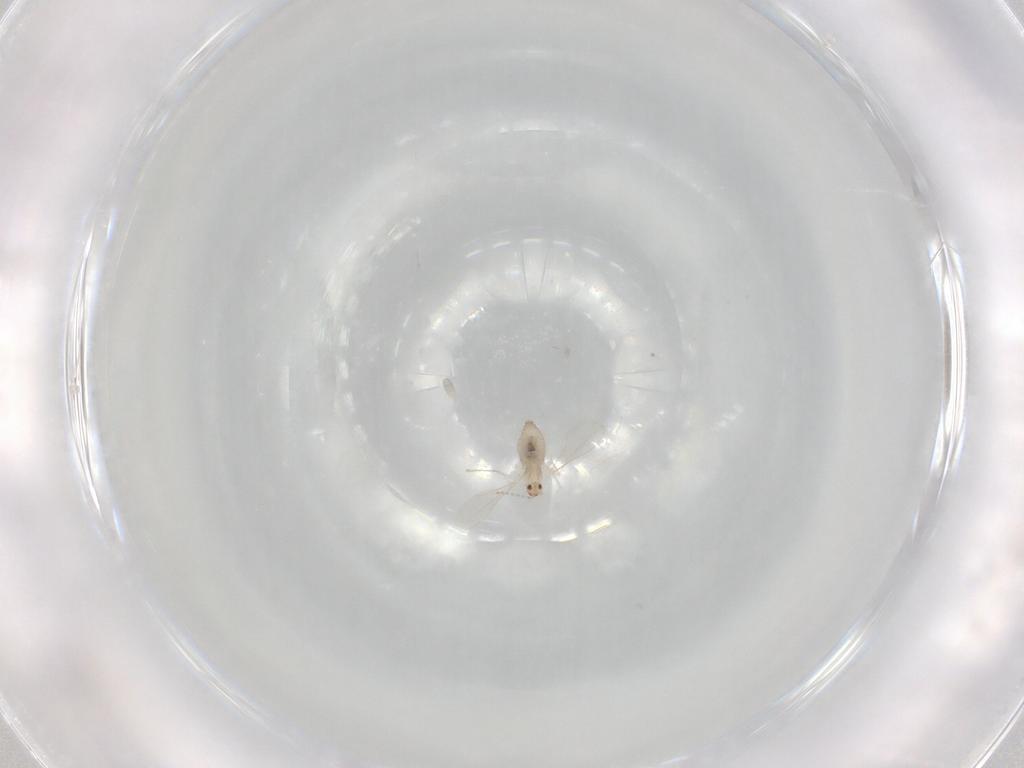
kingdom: Animalia
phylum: Arthropoda
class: Insecta
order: Diptera
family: Cecidomyiidae
